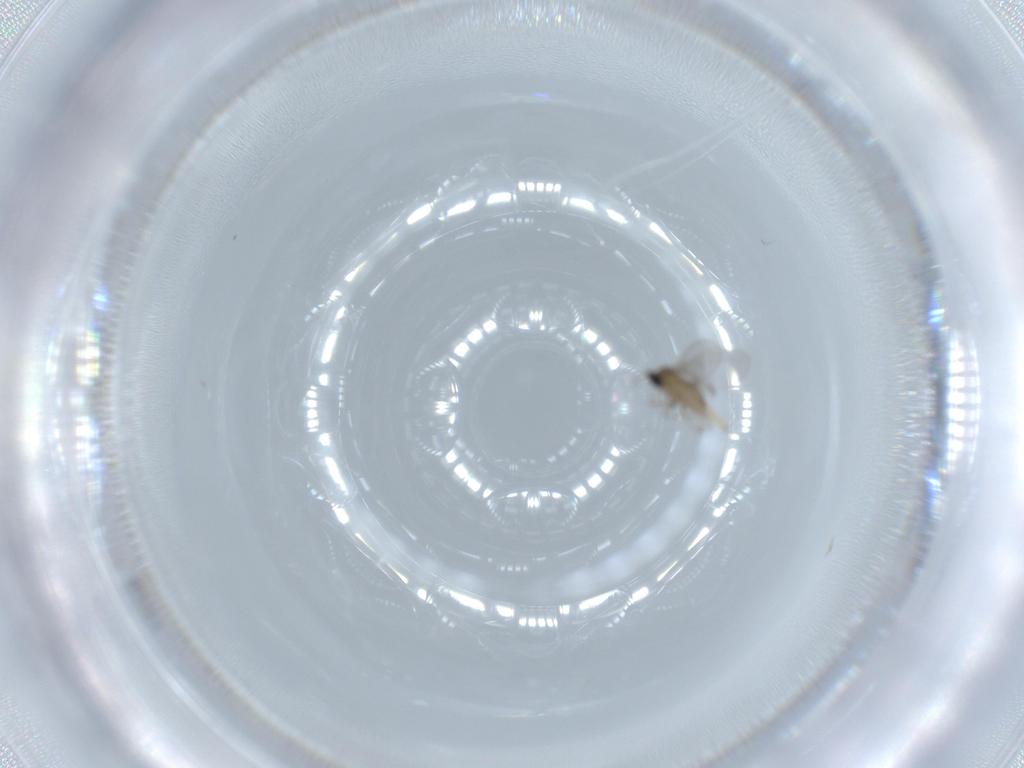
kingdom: Animalia
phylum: Arthropoda
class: Insecta
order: Diptera
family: Cecidomyiidae
